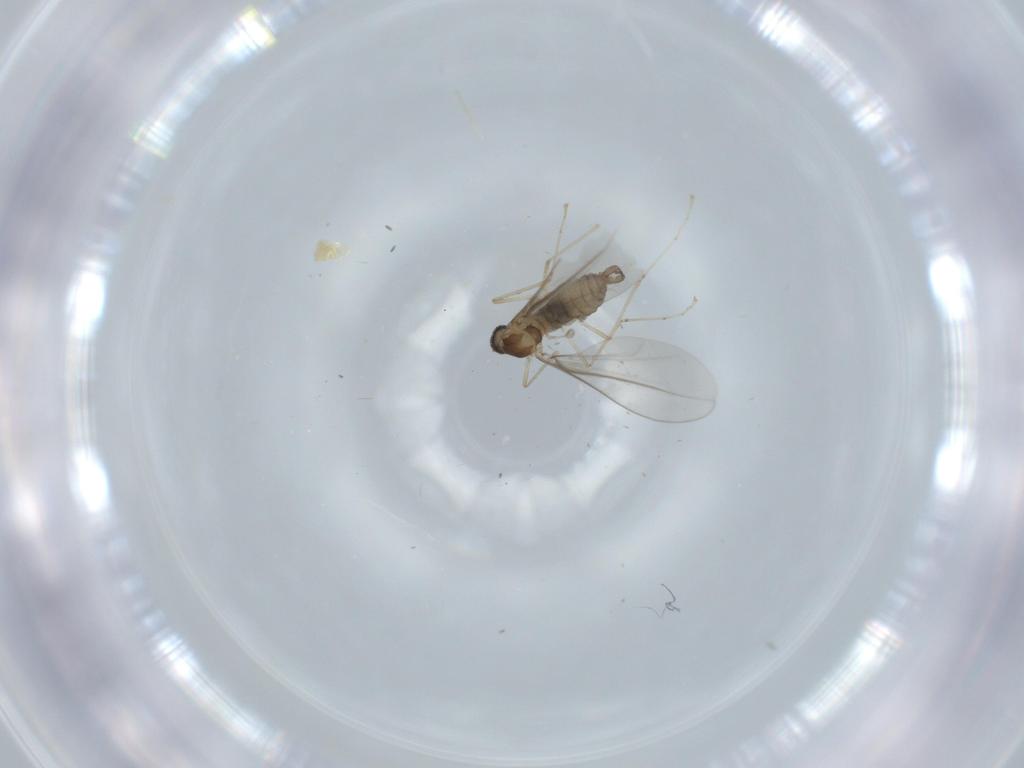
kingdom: Animalia
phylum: Arthropoda
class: Insecta
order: Diptera
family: Cecidomyiidae
